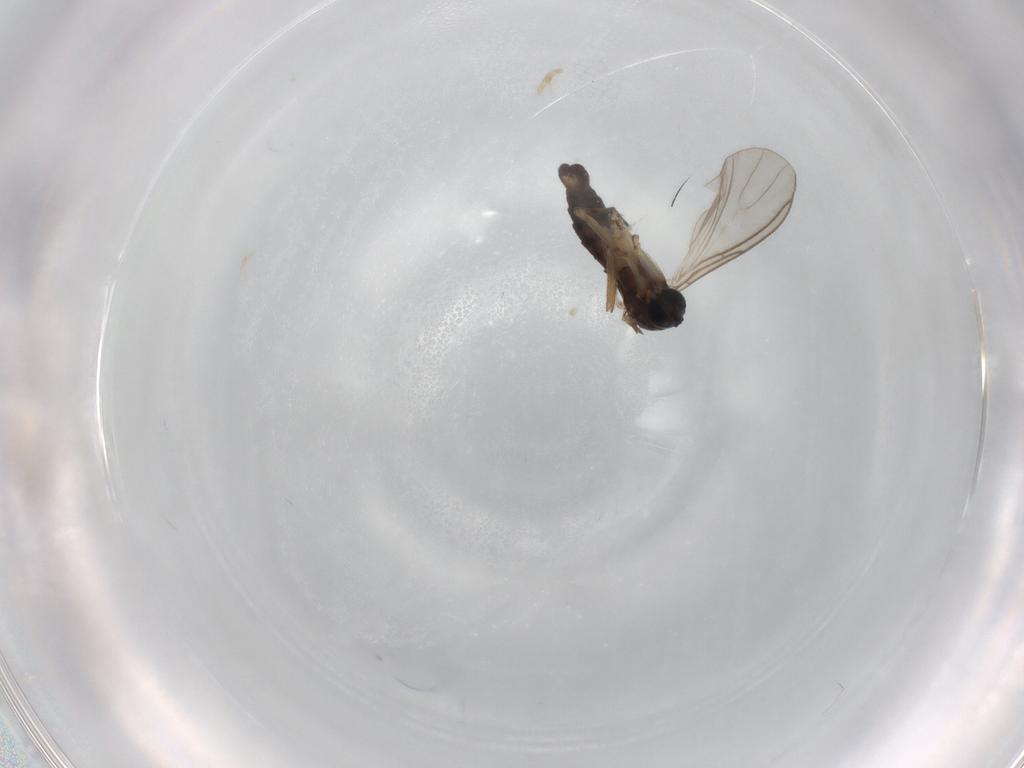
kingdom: Animalia
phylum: Arthropoda
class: Insecta
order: Diptera
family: Sciaridae
